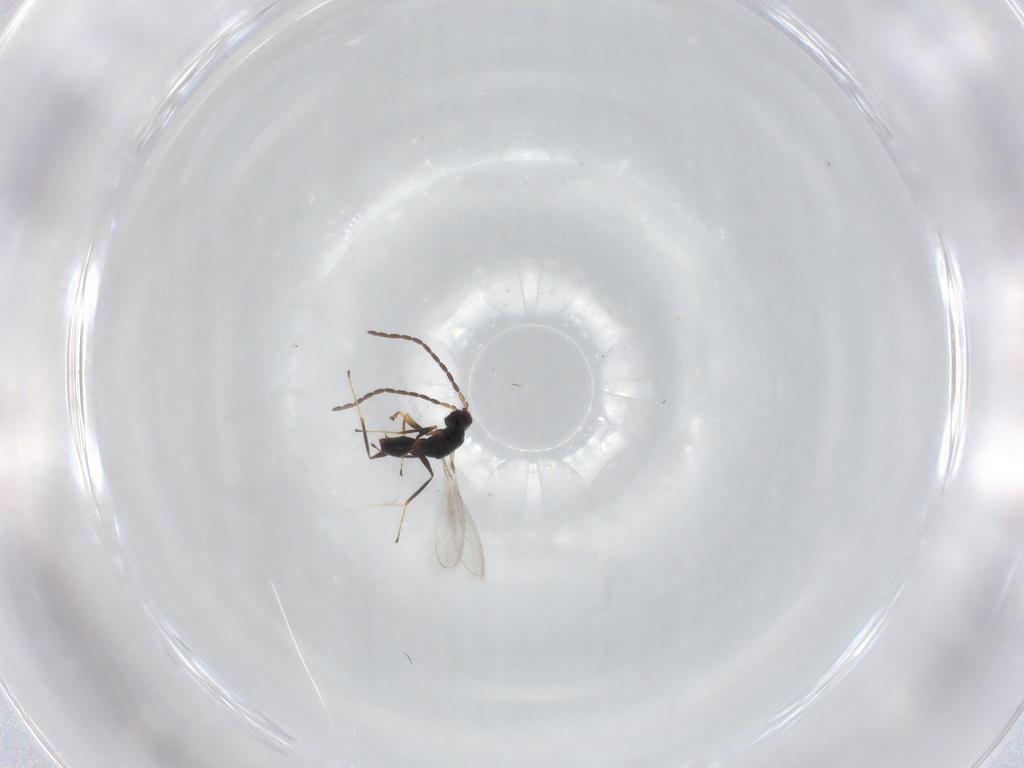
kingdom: Animalia
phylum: Arthropoda
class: Insecta
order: Hymenoptera
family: Mymaridae
